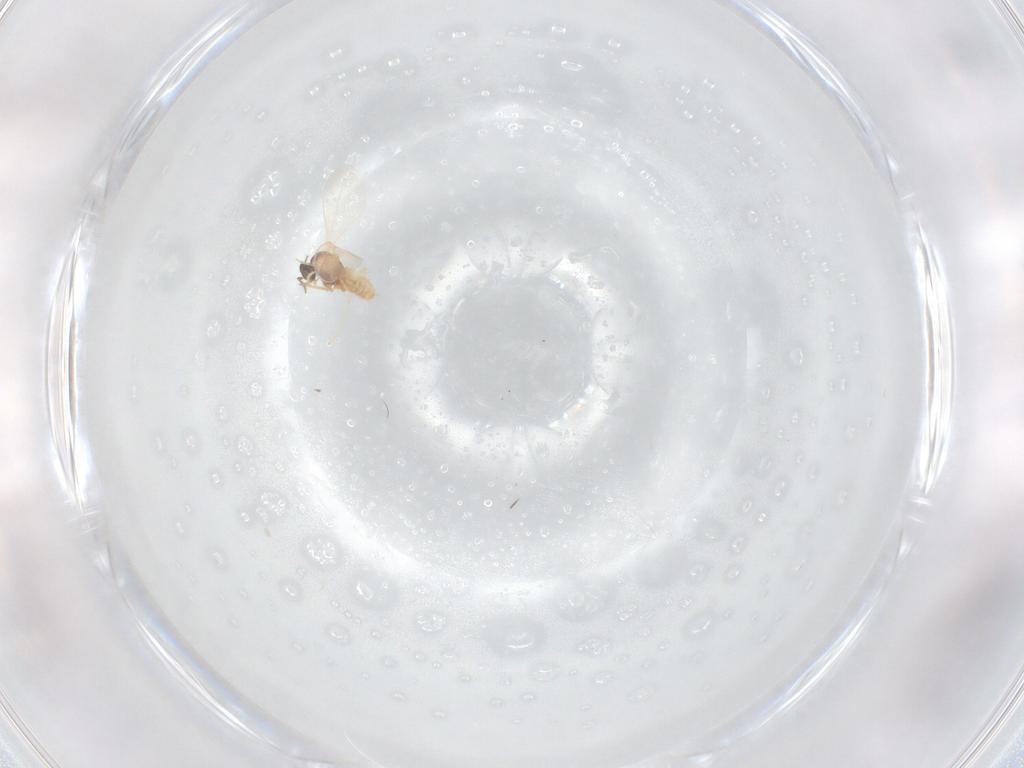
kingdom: Animalia
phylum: Arthropoda
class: Insecta
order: Diptera
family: Cecidomyiidae
